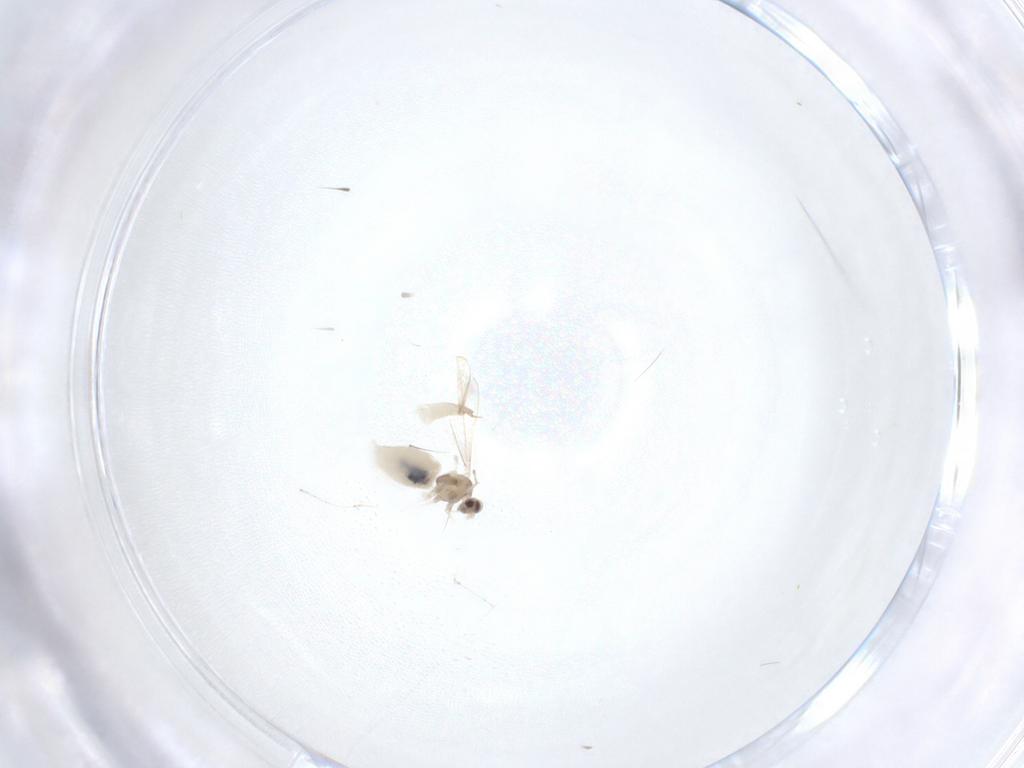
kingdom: Animalia
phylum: Arthropoda
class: Insecta
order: Diptera
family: Cecidomyiidae
